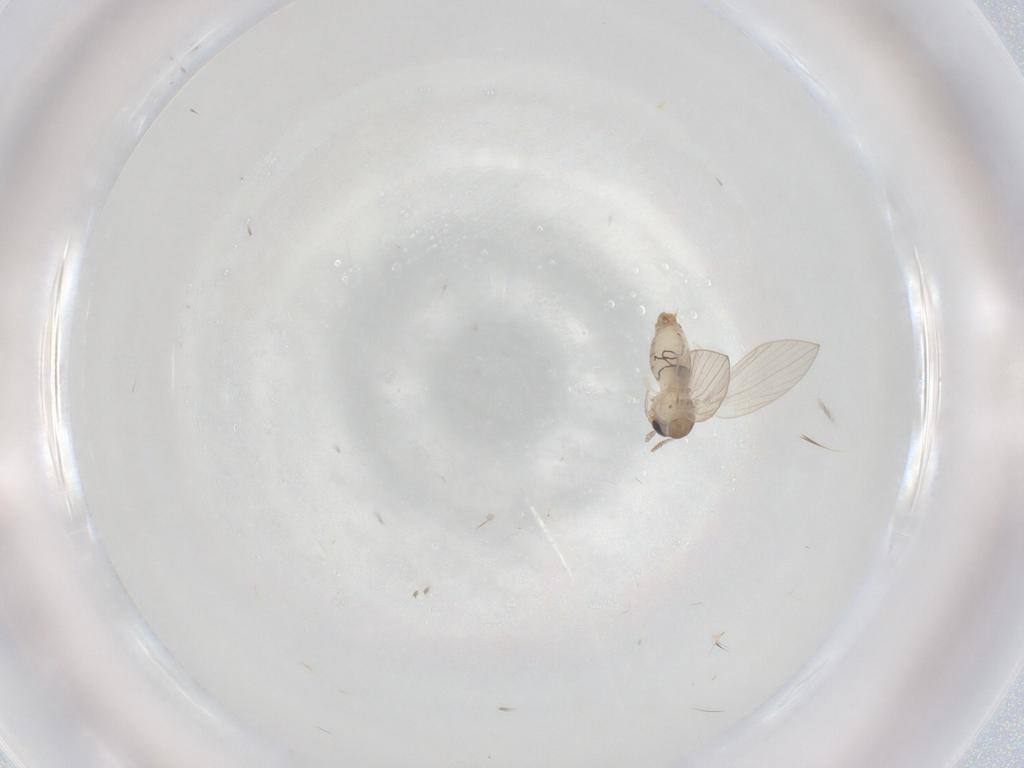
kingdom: Animalia
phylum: Arthropoda
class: Insecta
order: Diptera
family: Psychodidae
